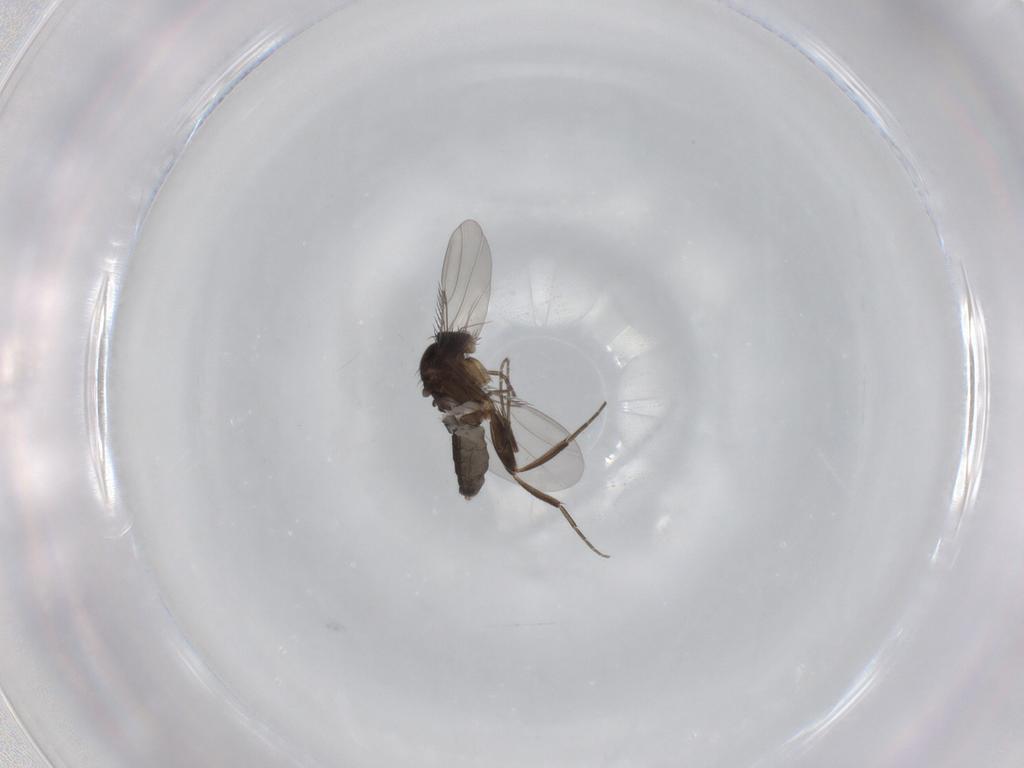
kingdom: Animalia
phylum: Arthropoda
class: Insecta
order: Diptera
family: Phoridae
